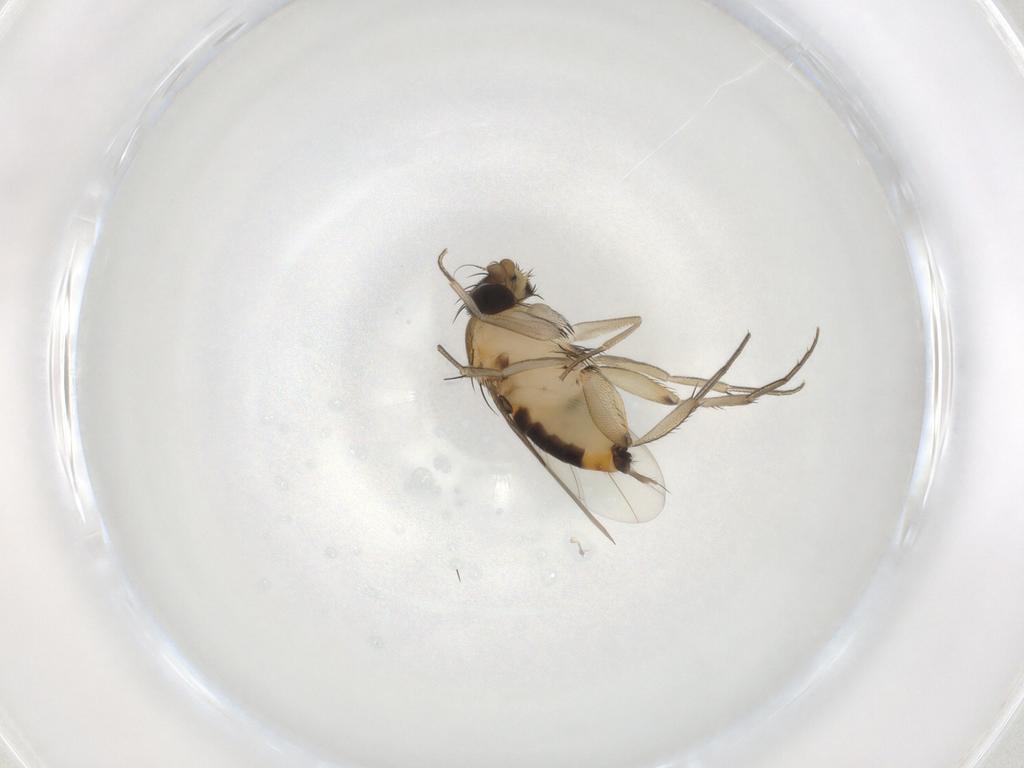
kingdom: Animalia
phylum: Arthropoda
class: Insecta
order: Diptera
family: Phoridae
